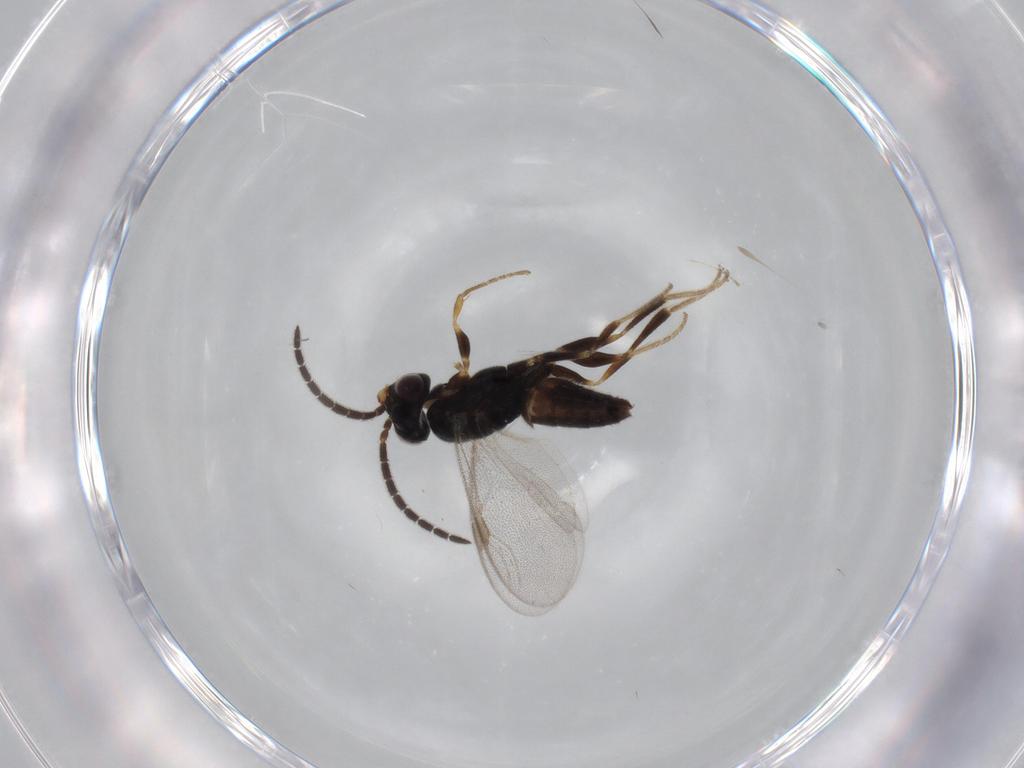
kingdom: Animalia
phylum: Arthropoda
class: Insecta
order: Hymenoptera
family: Dryinidae
